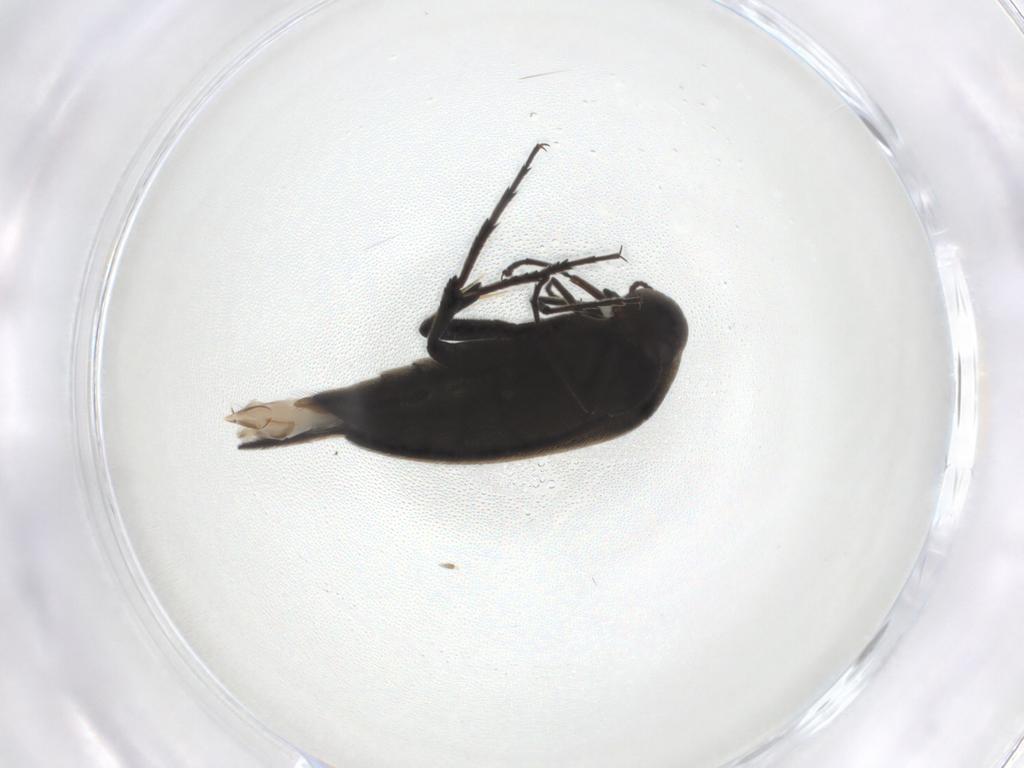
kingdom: Animalia
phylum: Arthropoda
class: Insecta
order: Coleoptera
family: Mordellidae
